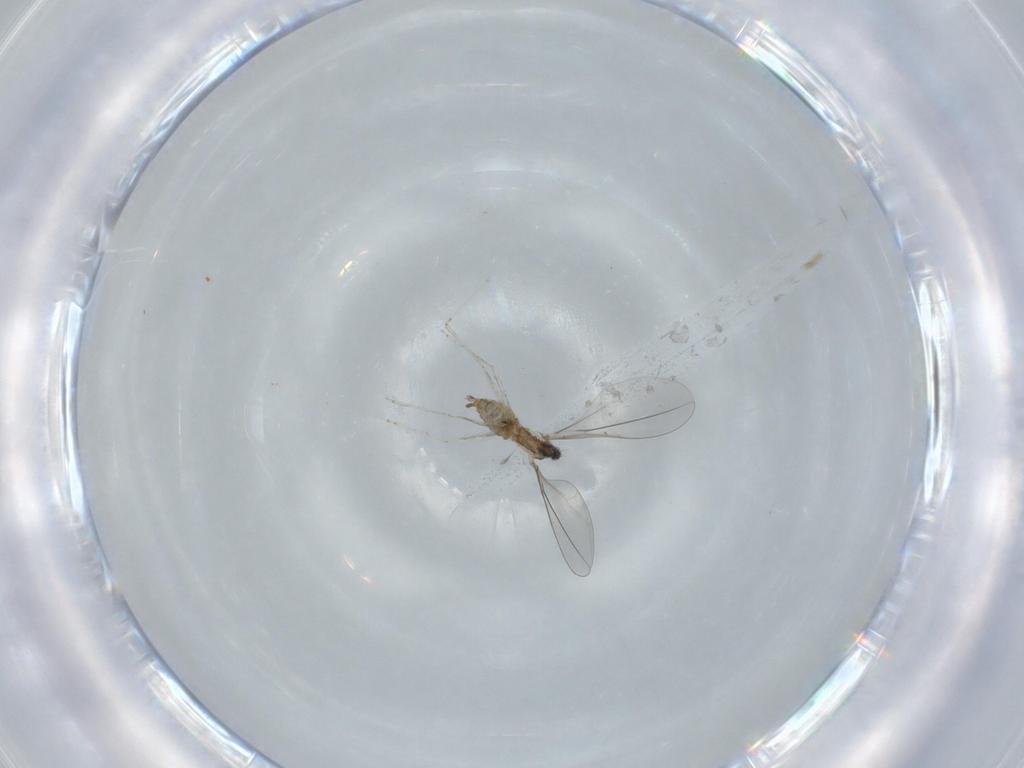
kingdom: Animalia
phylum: Arthropoda
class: Insecta
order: Diptera
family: Cecidomyiidae
